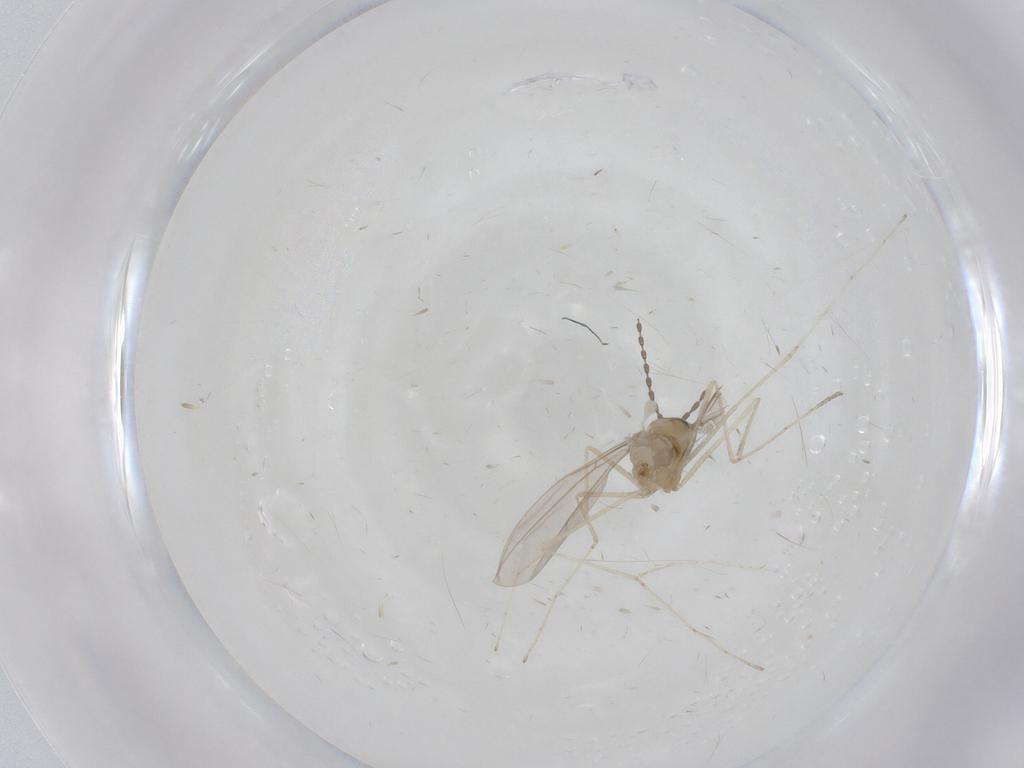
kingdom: Animalia
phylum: Arthropoda
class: Insecta
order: Diptera
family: Cecidomyiidae
